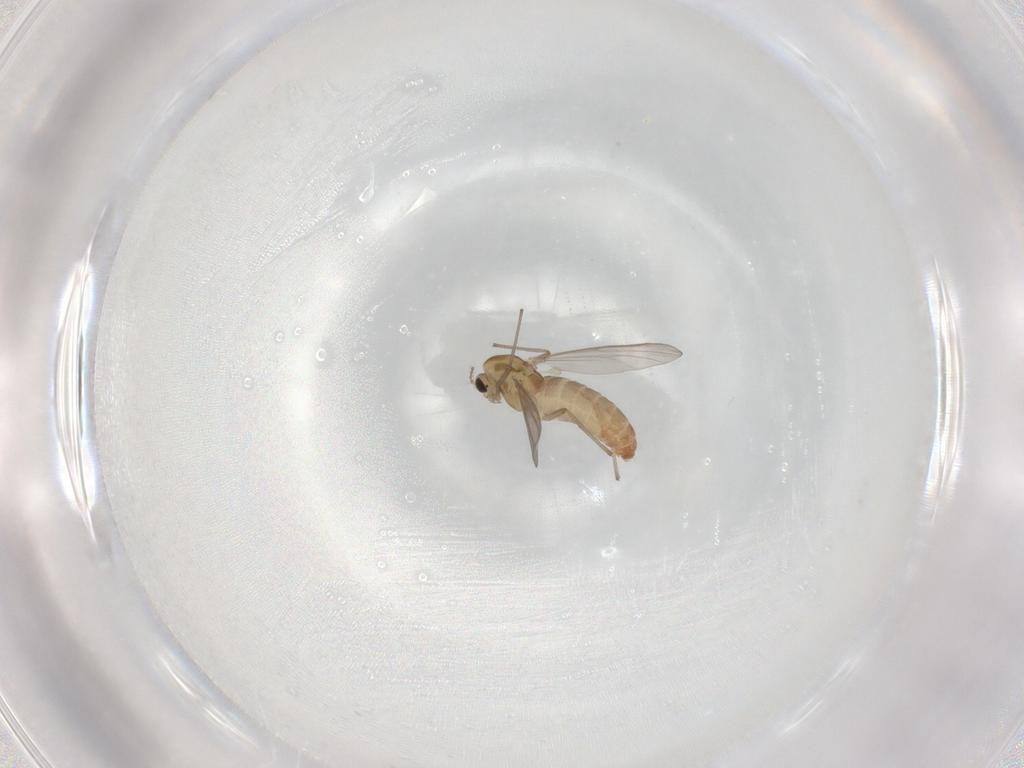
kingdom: Animalia
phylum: Arthropoda
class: Insecta
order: Diptera
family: Chironomidae
